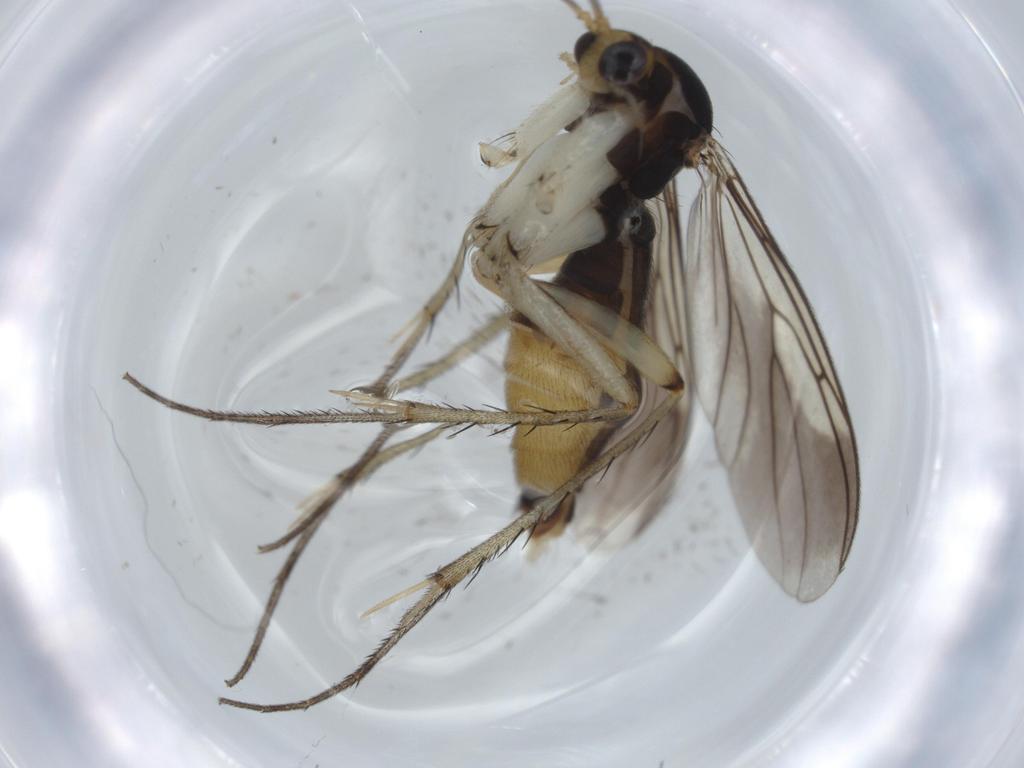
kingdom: Animalia
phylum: Arthropoda
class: Insecta
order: Diptera
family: Mycetophilidae
